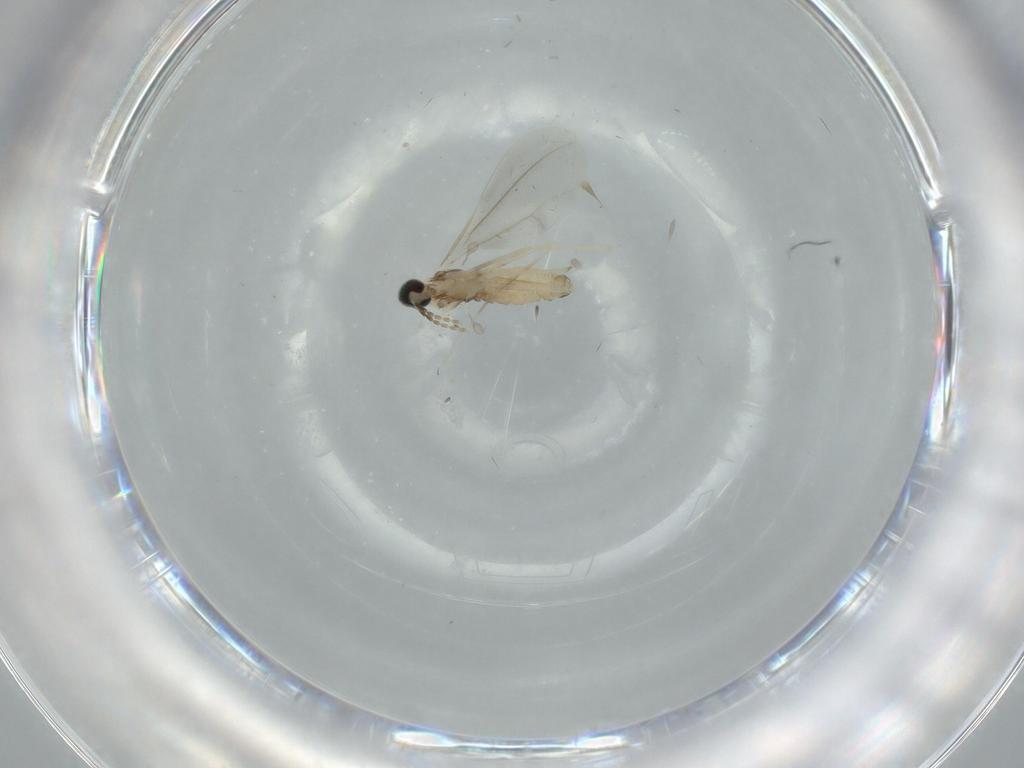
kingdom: Animalia
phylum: Arthropoda
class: Insecta
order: Diptera
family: Cecidomyiidae
